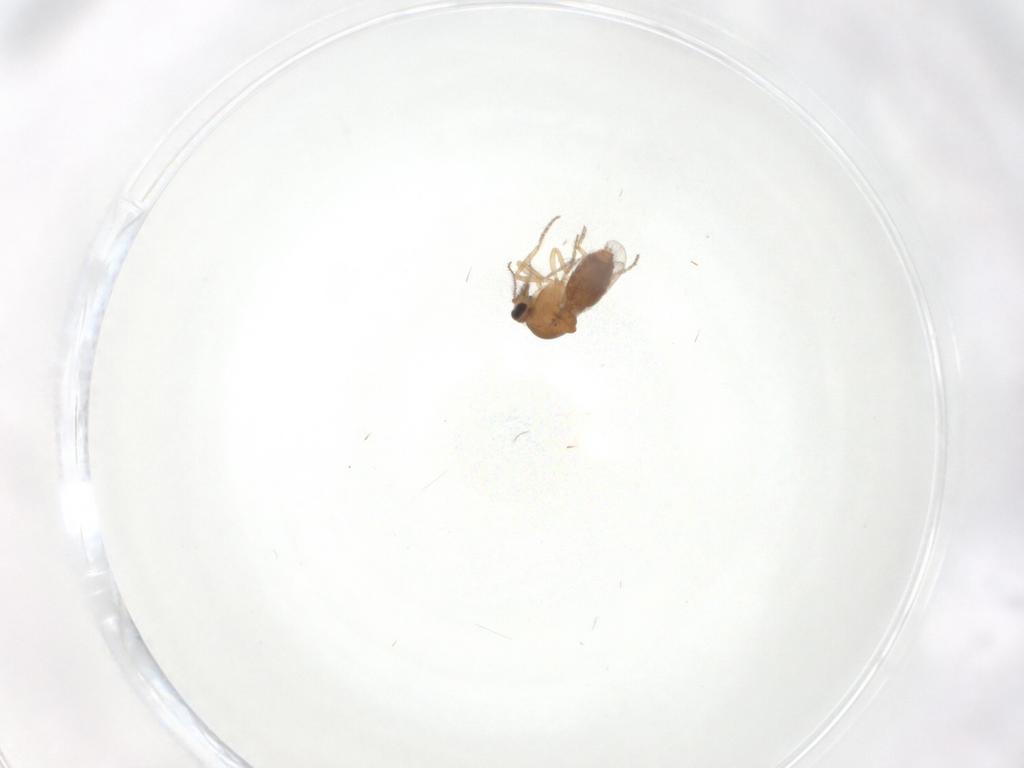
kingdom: Animalia
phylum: Arthropoda
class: Insecta
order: Diptera
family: Ceratopogonidae
